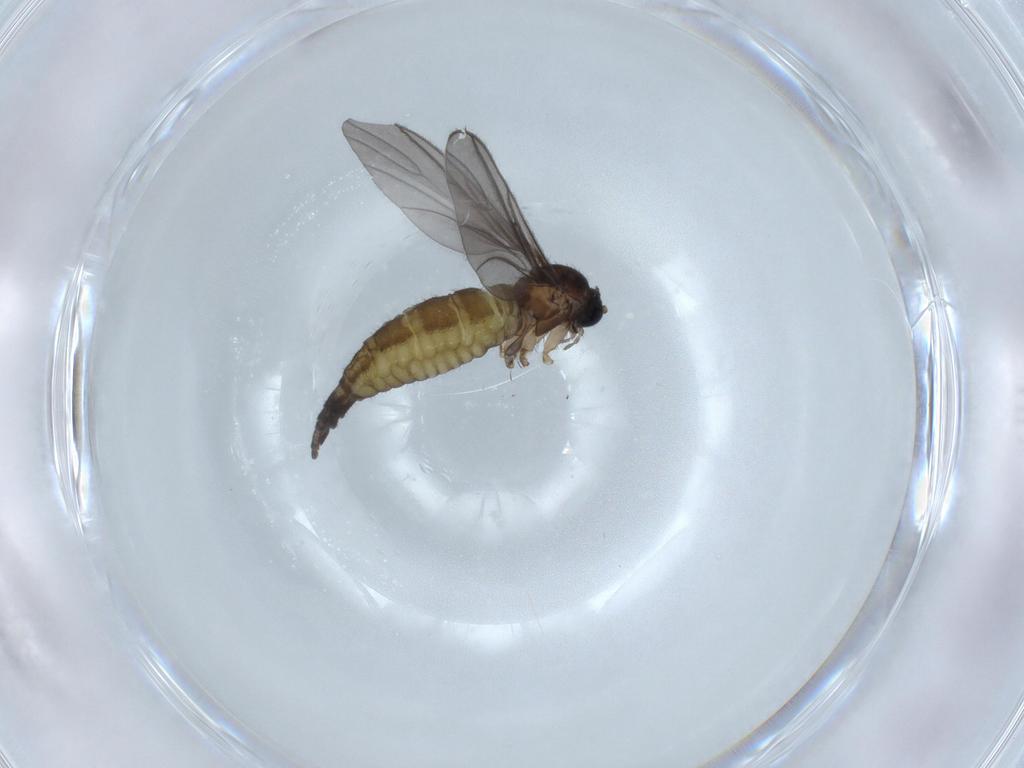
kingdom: Animalia
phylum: Arthropoda
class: Insecta
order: Diptera
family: Sciaridae
